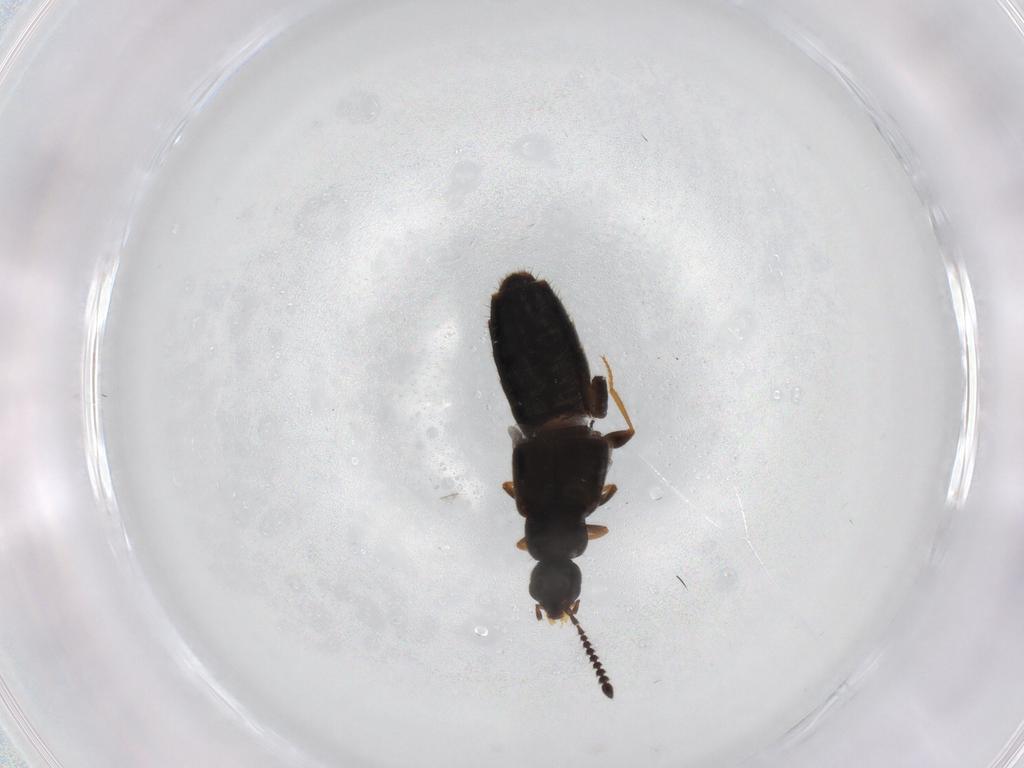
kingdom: Animalia
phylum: Arthropoda
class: Insecta
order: Coleoptera
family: Staphylinidae
